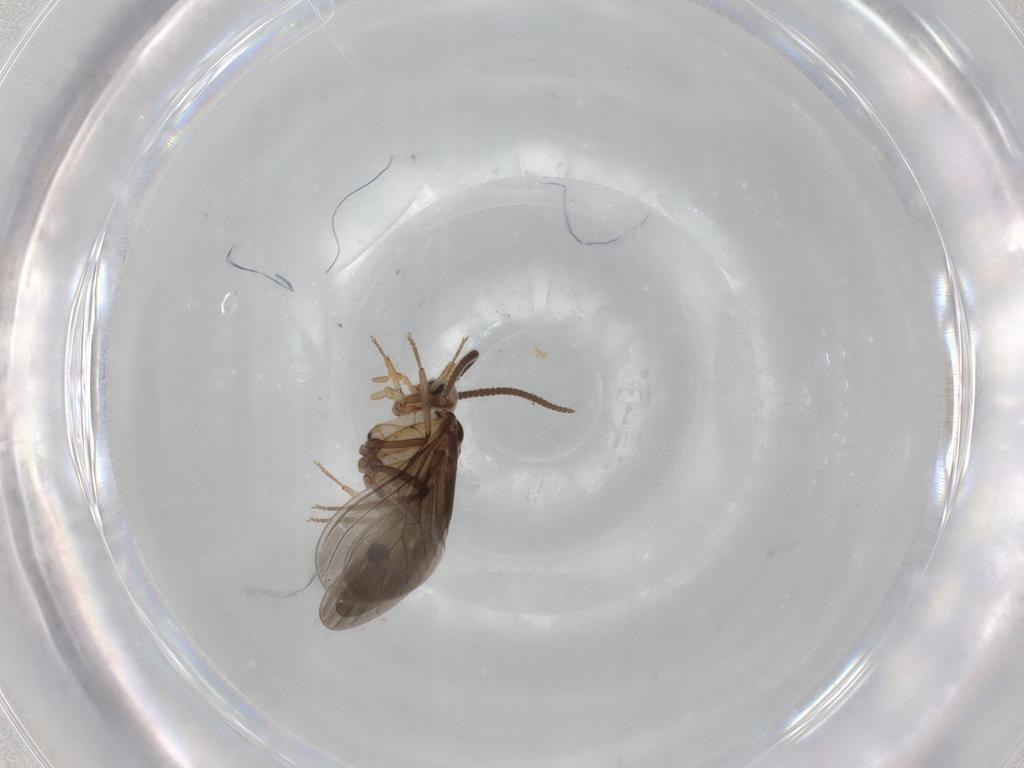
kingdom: Animalia
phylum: Arthropoda
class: Insecta
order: Neuroptera
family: Coniopterygidae
